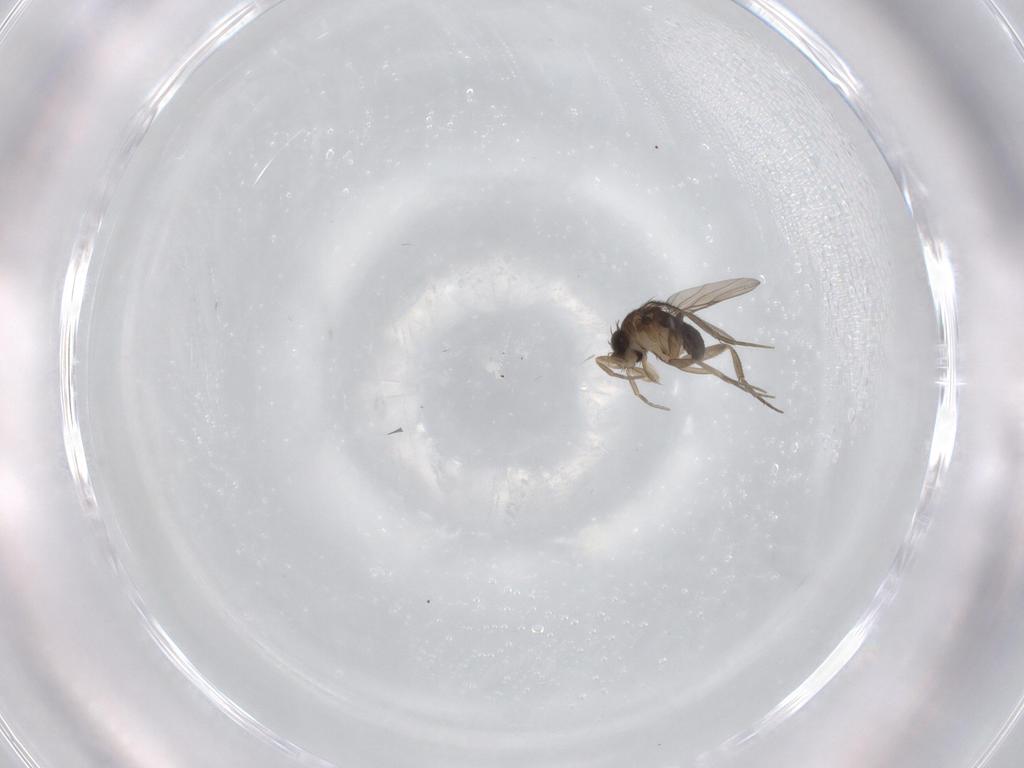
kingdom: Animalia
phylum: Arthropoda
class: Insecta
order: Diptera
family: Phoridae
